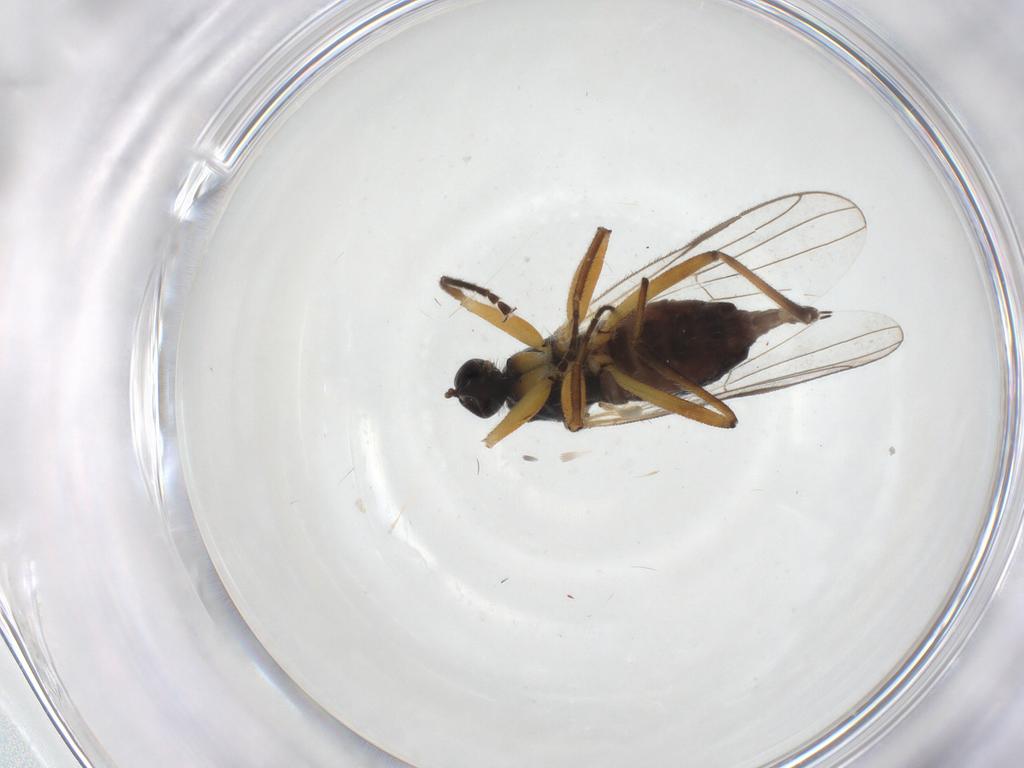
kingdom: Animalia
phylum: Arthropoda
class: Insecta
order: Diptera
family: Hybotidae
